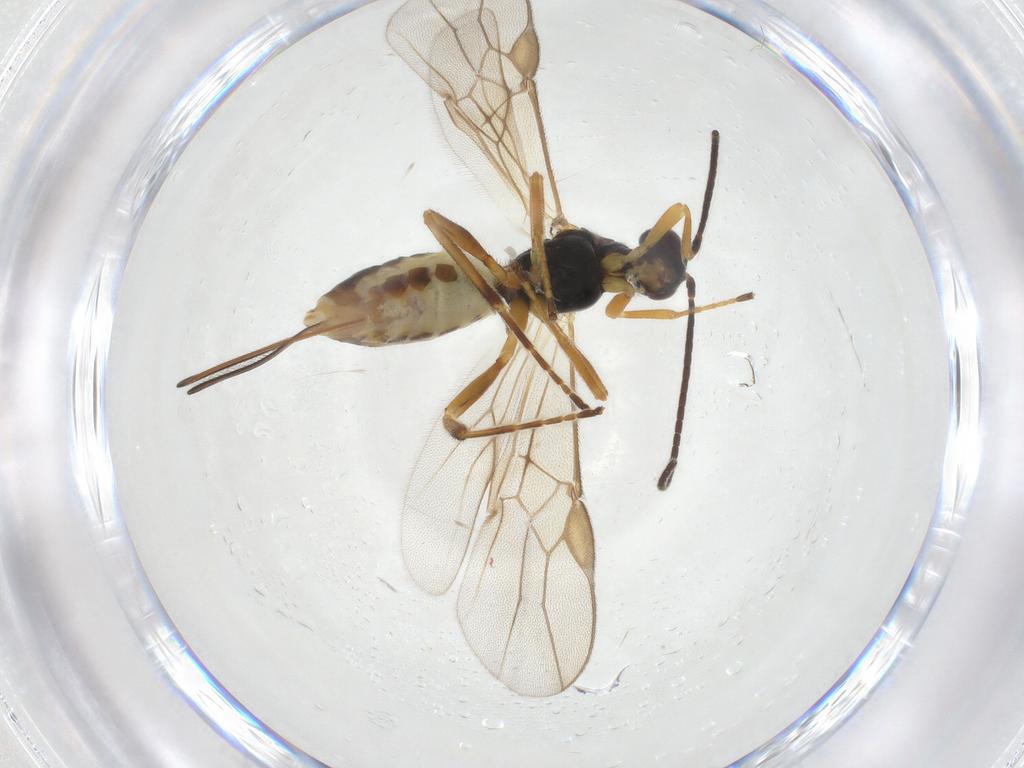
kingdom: Animalia
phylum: Arthropoda
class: Insecta
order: Hymenoptera
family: Braconidae
